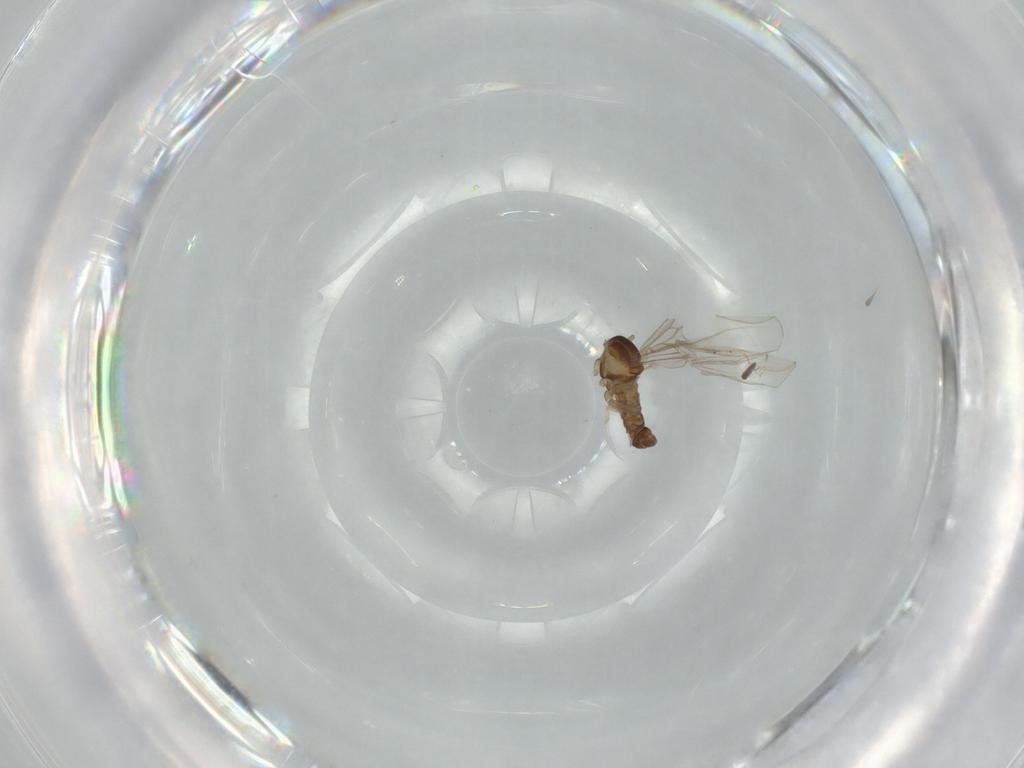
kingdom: Animalia
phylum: Arthropoda
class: Insecta
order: Diptera
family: Cecidomyiidae
